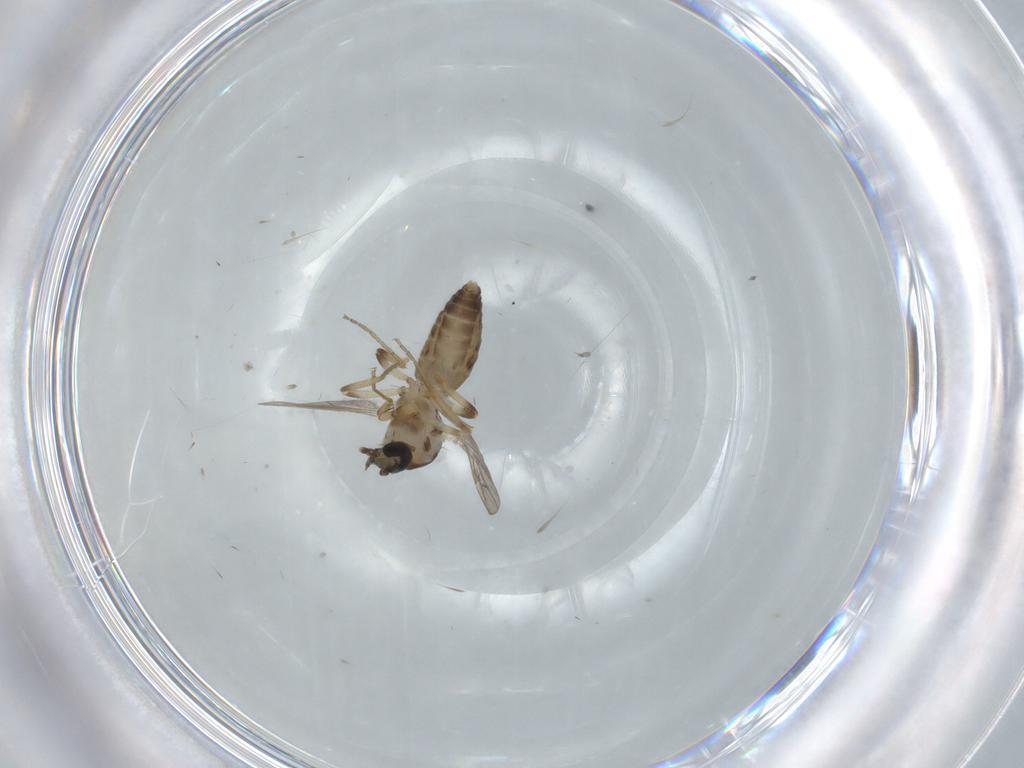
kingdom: Animalia
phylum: Arthropoda
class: Insecta
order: Diptera
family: Ceratopogonidae
